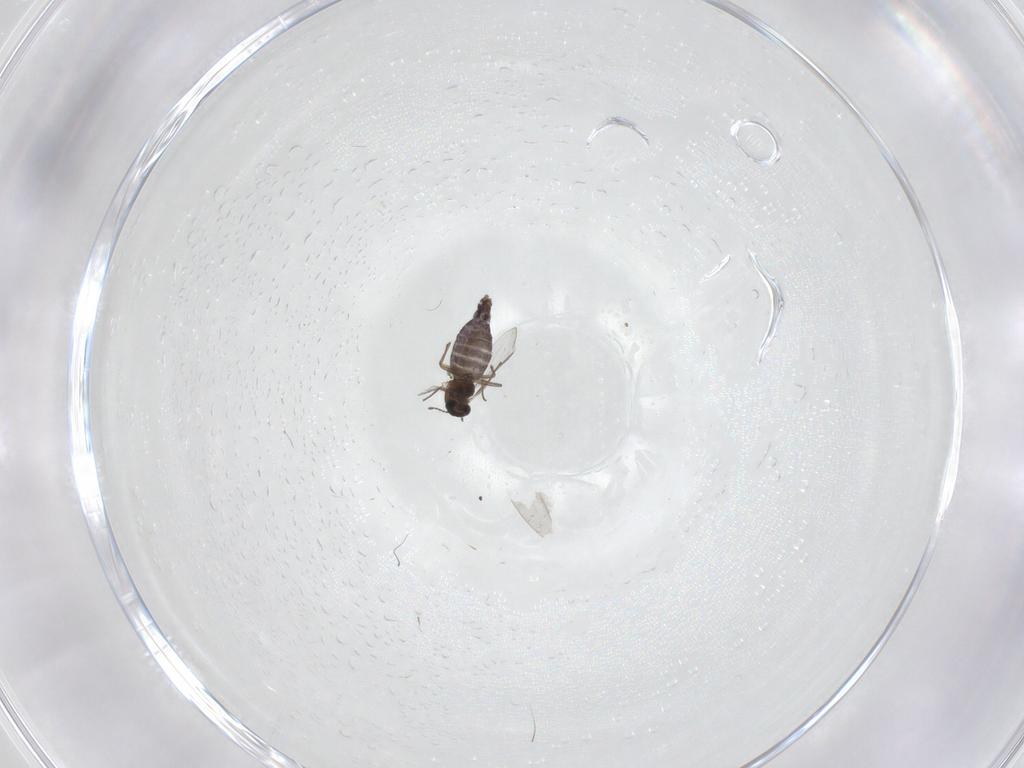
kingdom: Animalia
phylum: Arthropoda
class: Insecta
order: Diptera
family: Chironomidae
